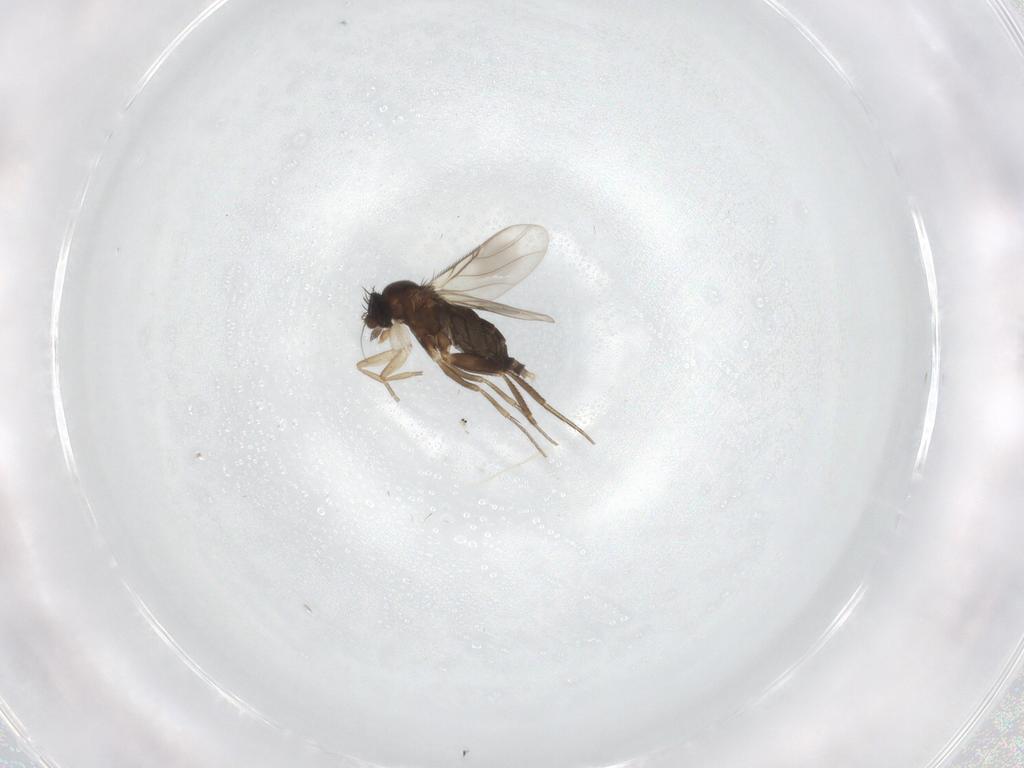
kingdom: Animalia
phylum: Arthropoda
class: Insecta
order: Diptera
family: Phoridae
